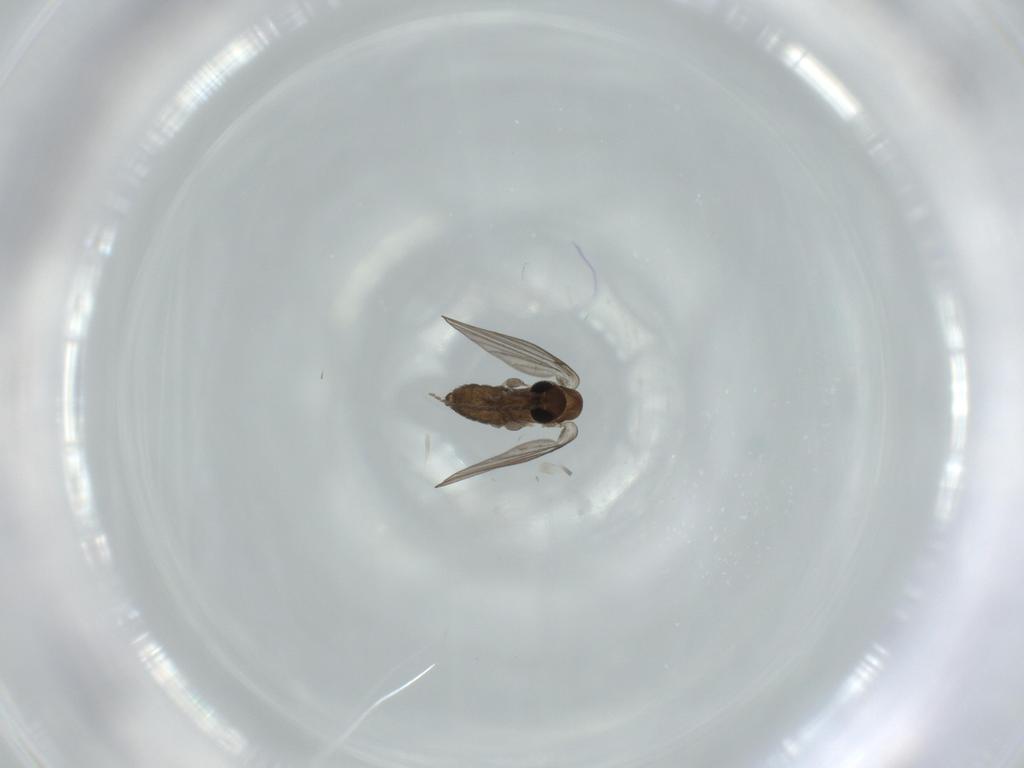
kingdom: Animalia
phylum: Arthropoda
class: Insecta
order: Diptera
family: Psychodidae
